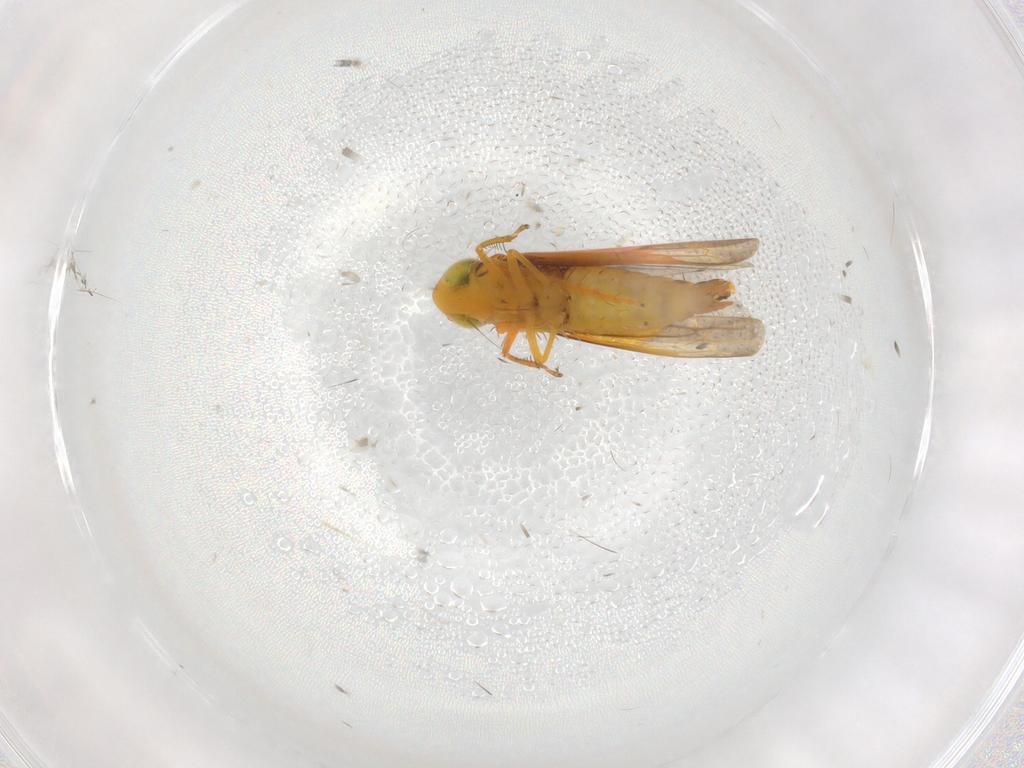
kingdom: Animalia
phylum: Arthropoda
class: Insecta
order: Hemiptera
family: Cicadellidae
